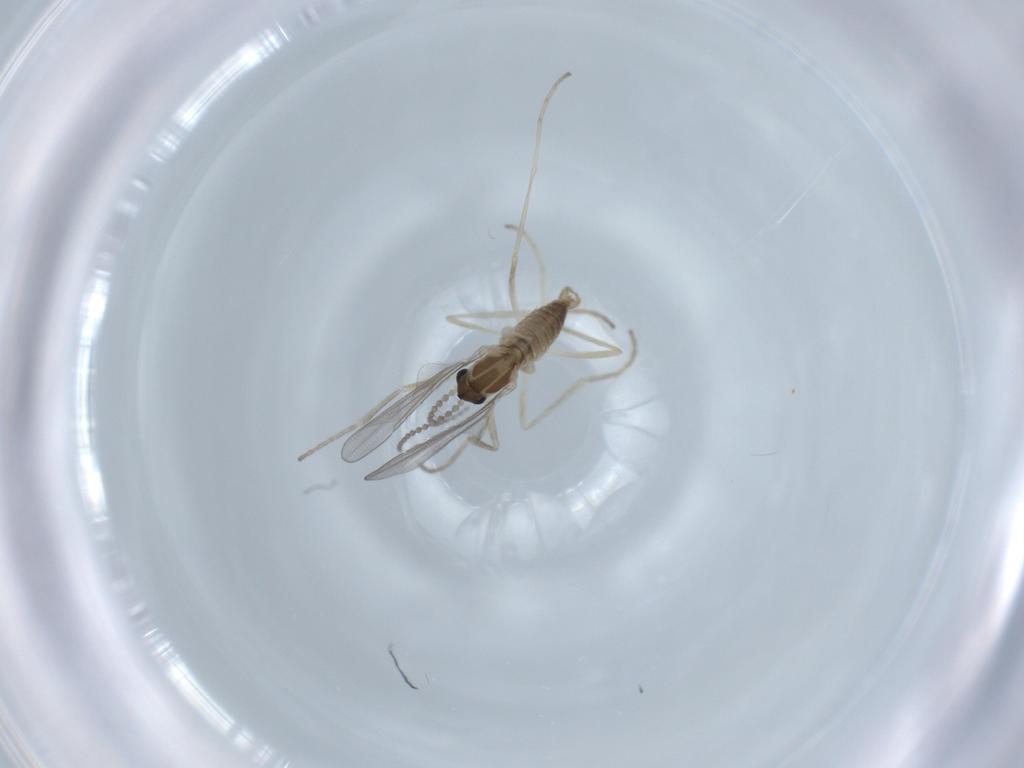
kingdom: Animalia
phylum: Arthropoda
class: Insecta
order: Diptera
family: Cecidomyiidae
